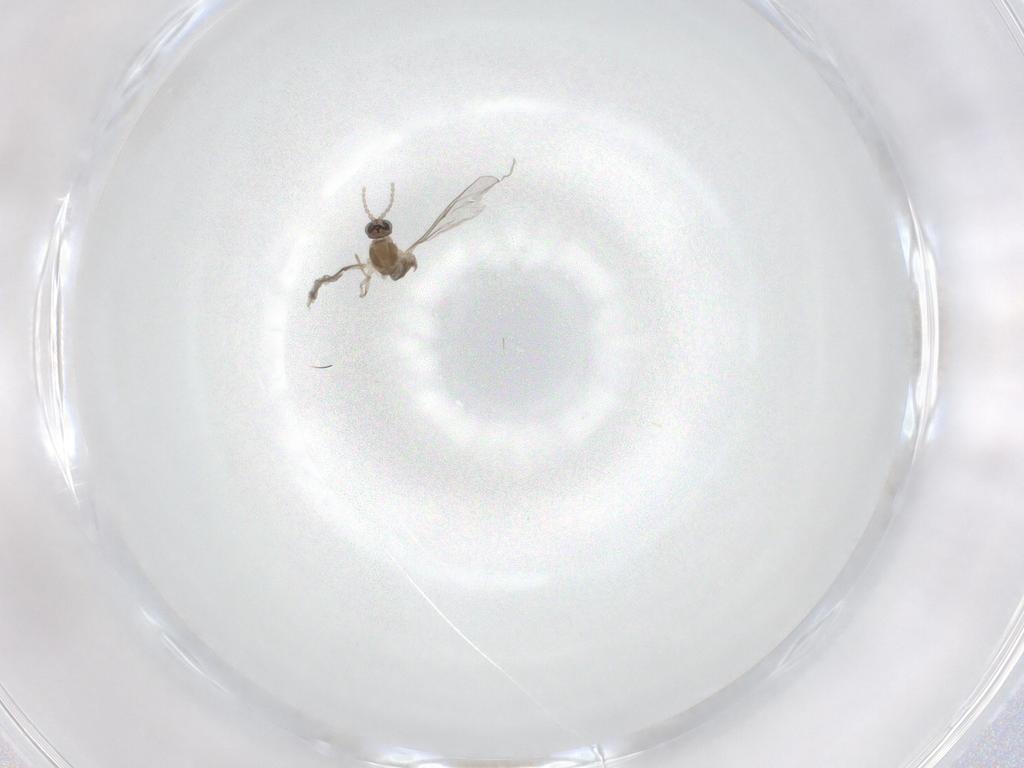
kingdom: Animalia
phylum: Arthropoda
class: Insecta
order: Diptera
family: Cecidomyiidae
